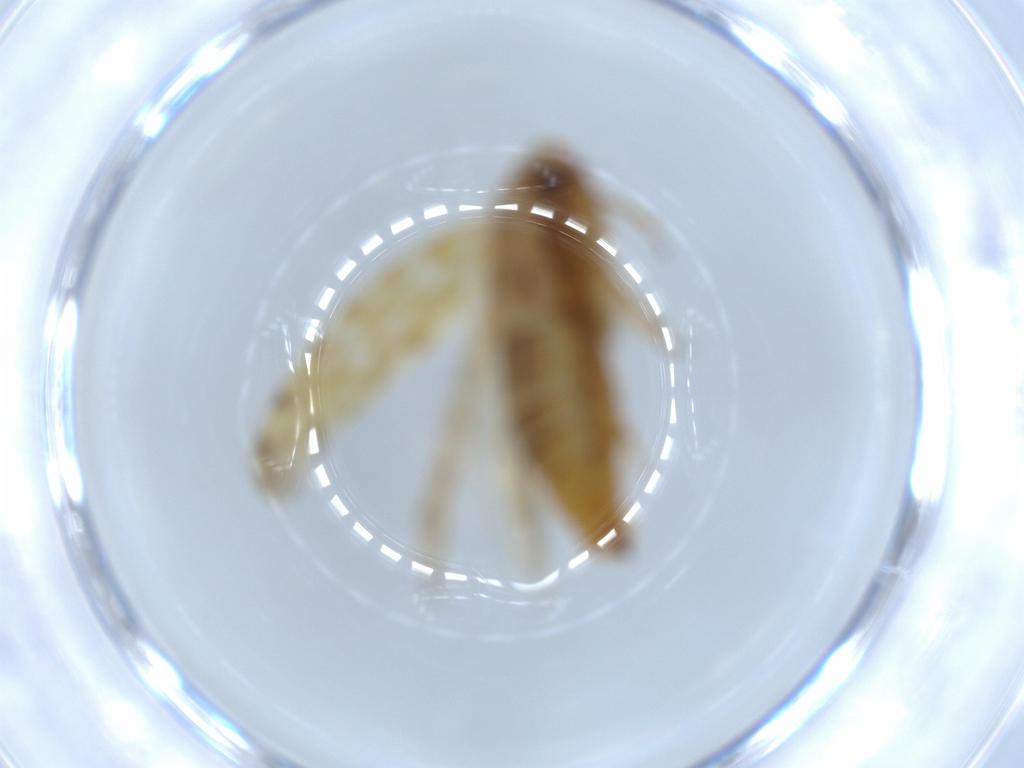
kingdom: Animalia
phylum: Arthropoda
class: Insecta
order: Hemiptera
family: Cicadellidae
